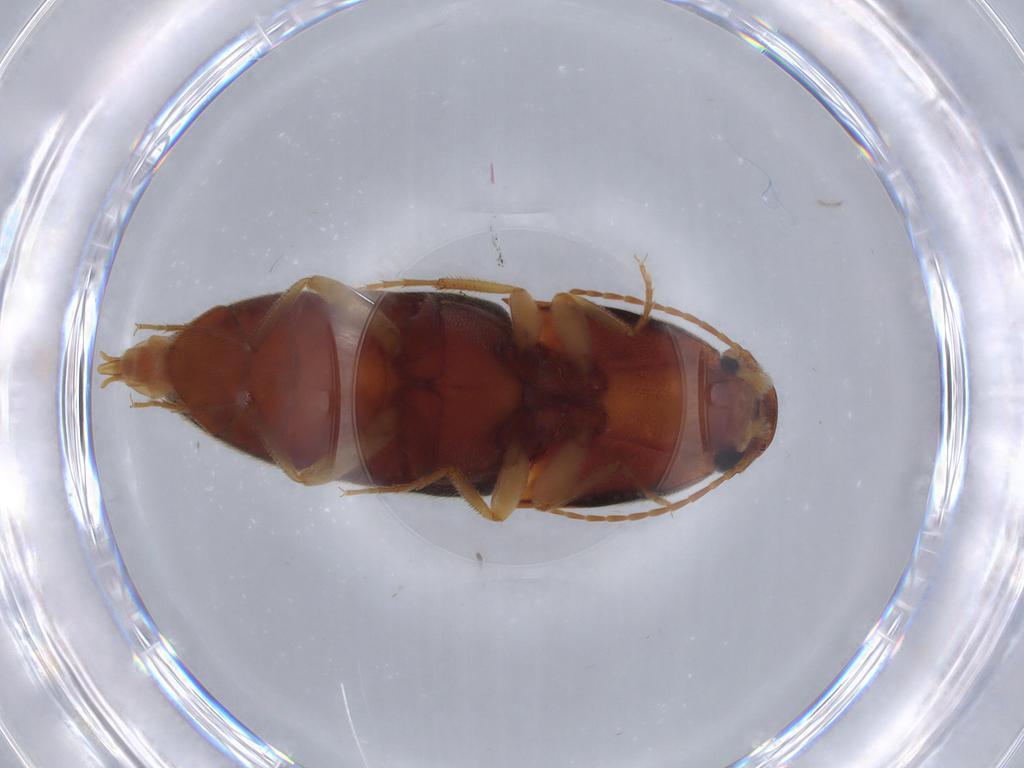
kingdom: Animalia
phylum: Arthropoda
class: Insecta
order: Coleoptera
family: Elateridae
